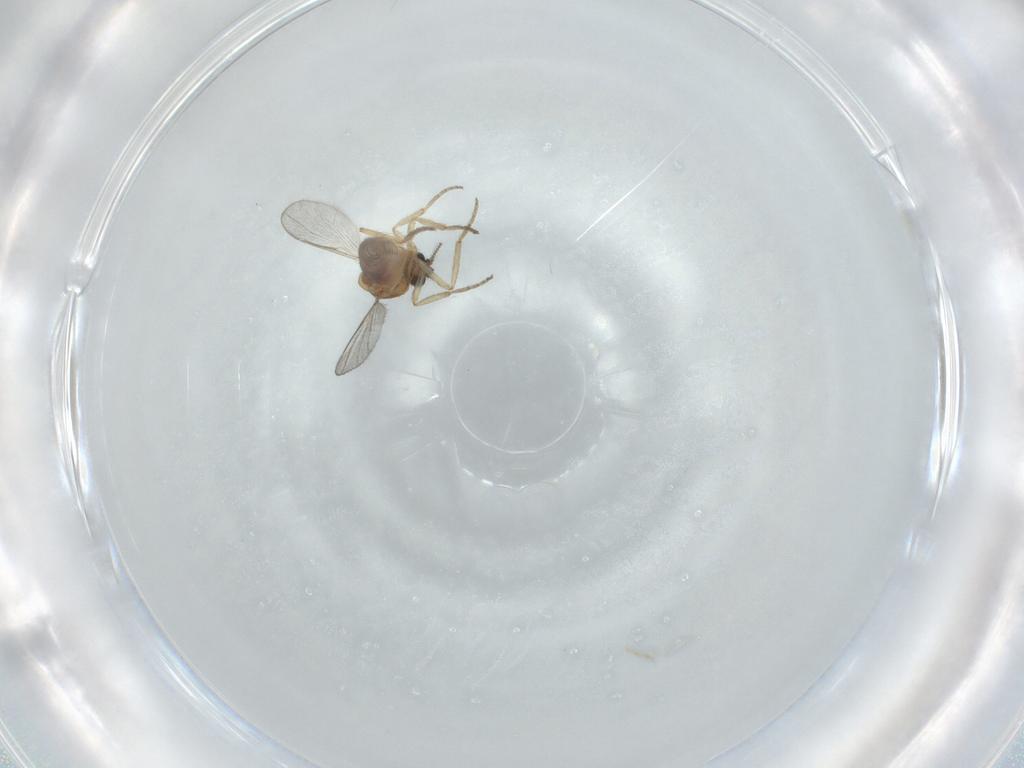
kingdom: Animalia
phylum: Arthropoda
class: Insecta
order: Diptera
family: Ceratopogonidae
